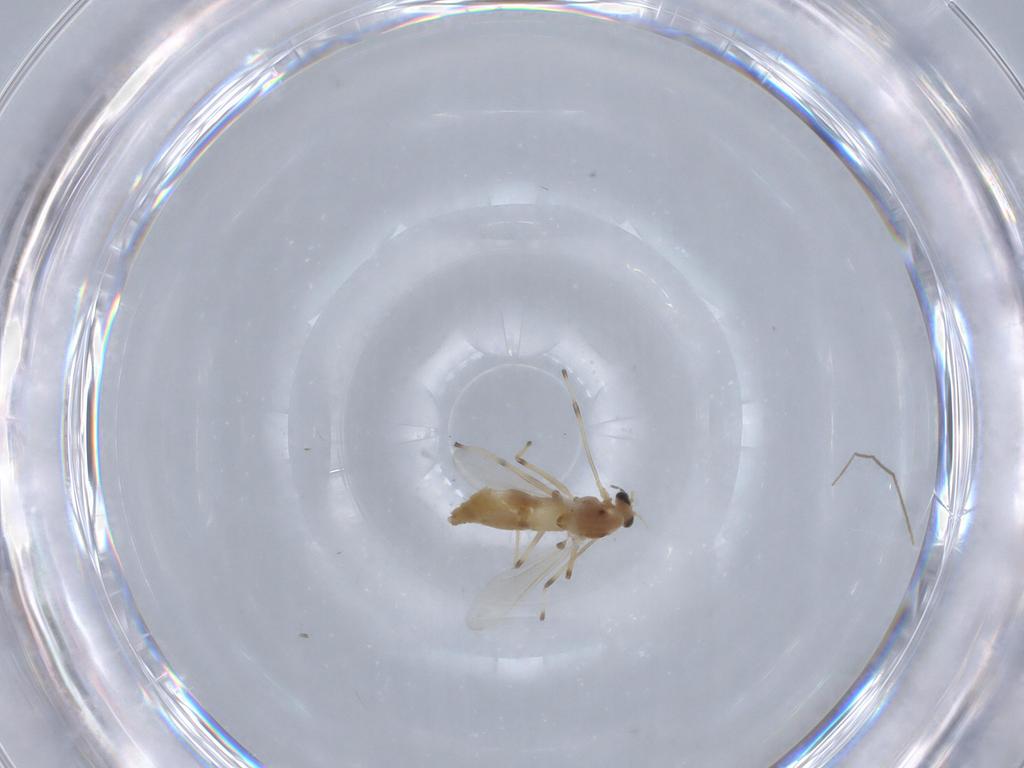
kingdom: Animalia
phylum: Arthropoda
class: Insecta
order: Diptera
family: Chironomidae
